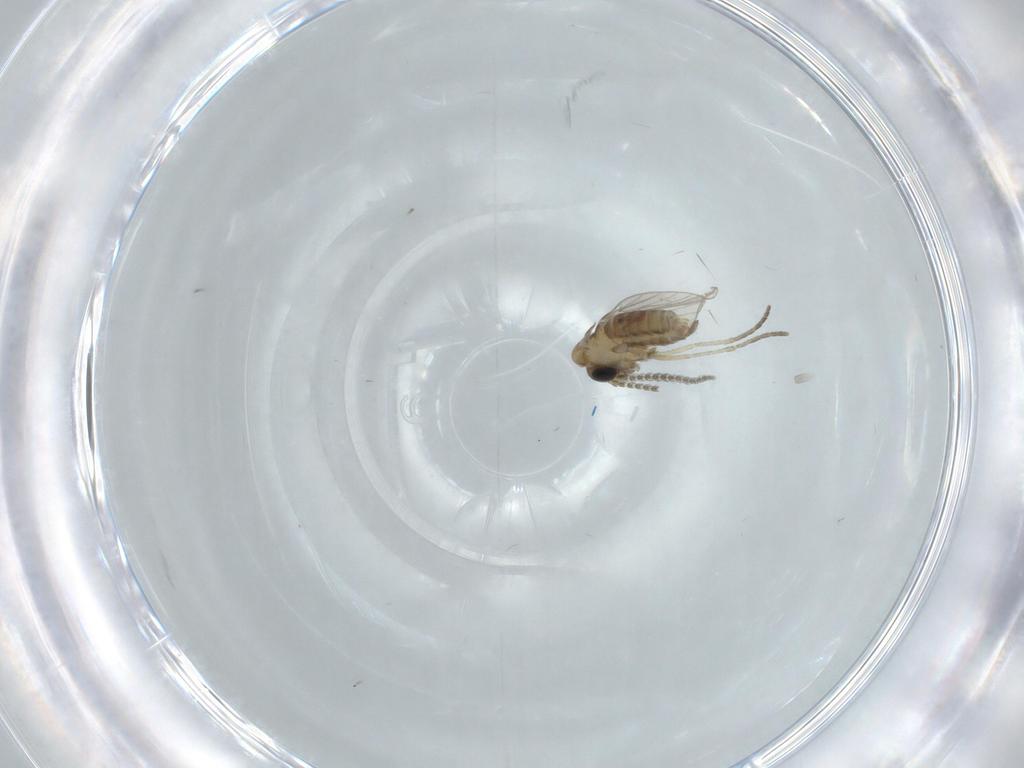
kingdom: Animalia
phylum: Arthropoda
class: Insecta
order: Diptera
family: Psychodidae
